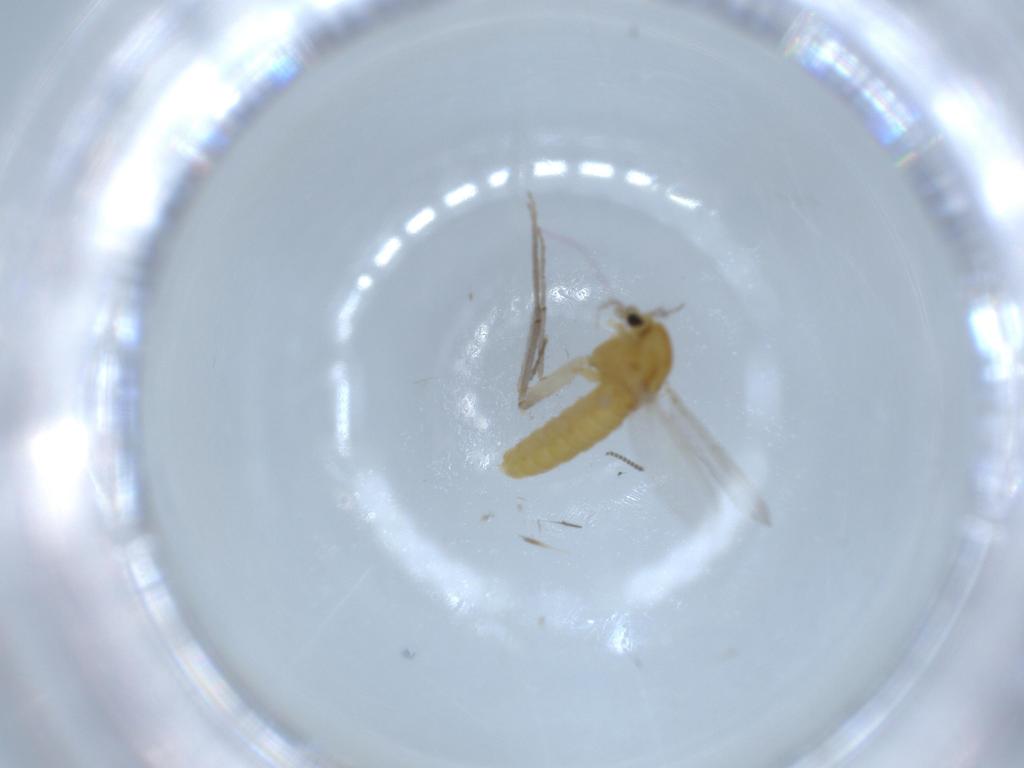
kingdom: Animalia
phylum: Arthropoda
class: Insecta
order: Diptera
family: Chironomidae
